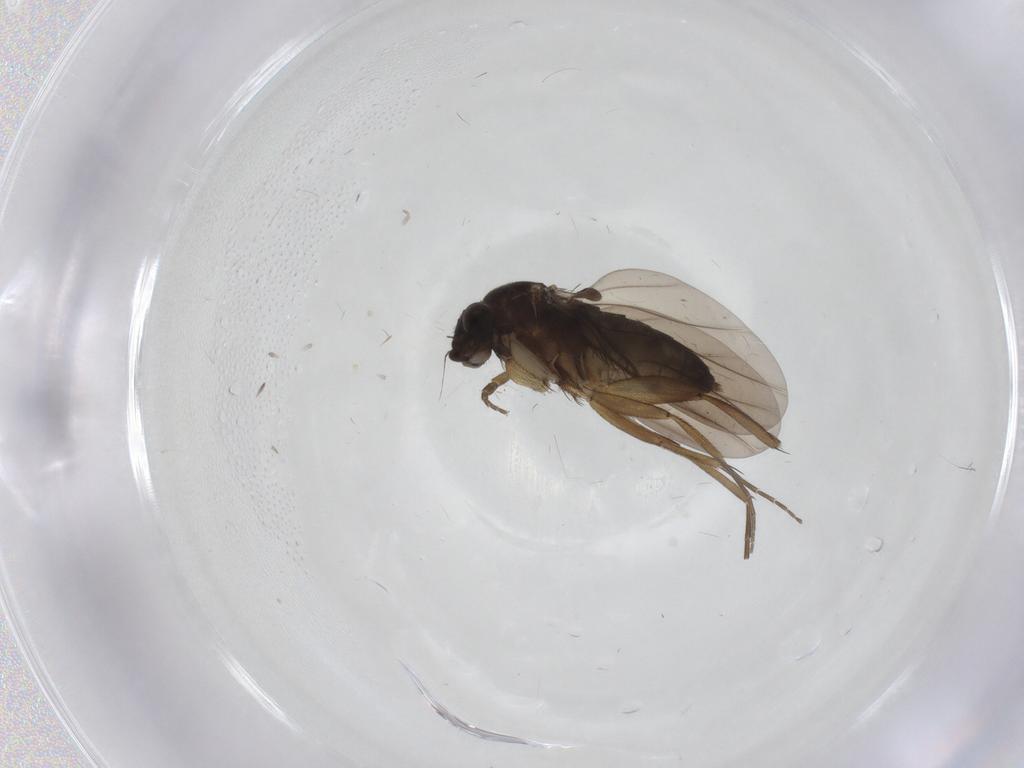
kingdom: Animalia
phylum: Arthropoda
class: Insecta
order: Diptera
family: Phoridae
